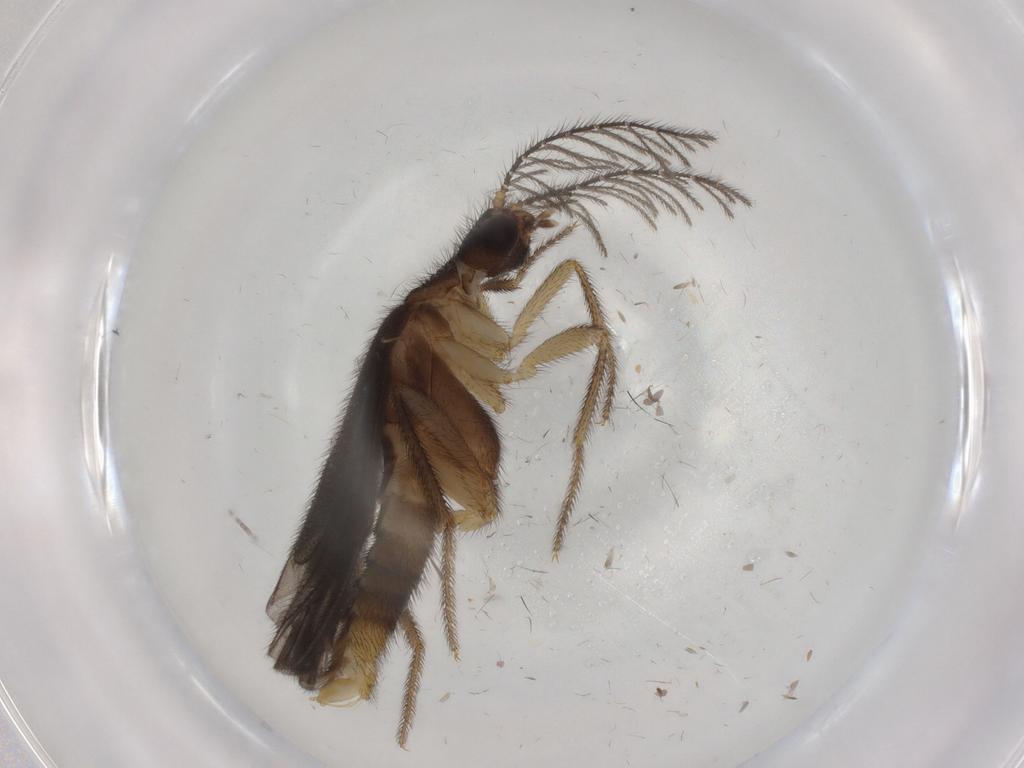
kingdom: Animalia
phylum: Arthropoda
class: Insecta
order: Coleoptera
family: Phengodidae
